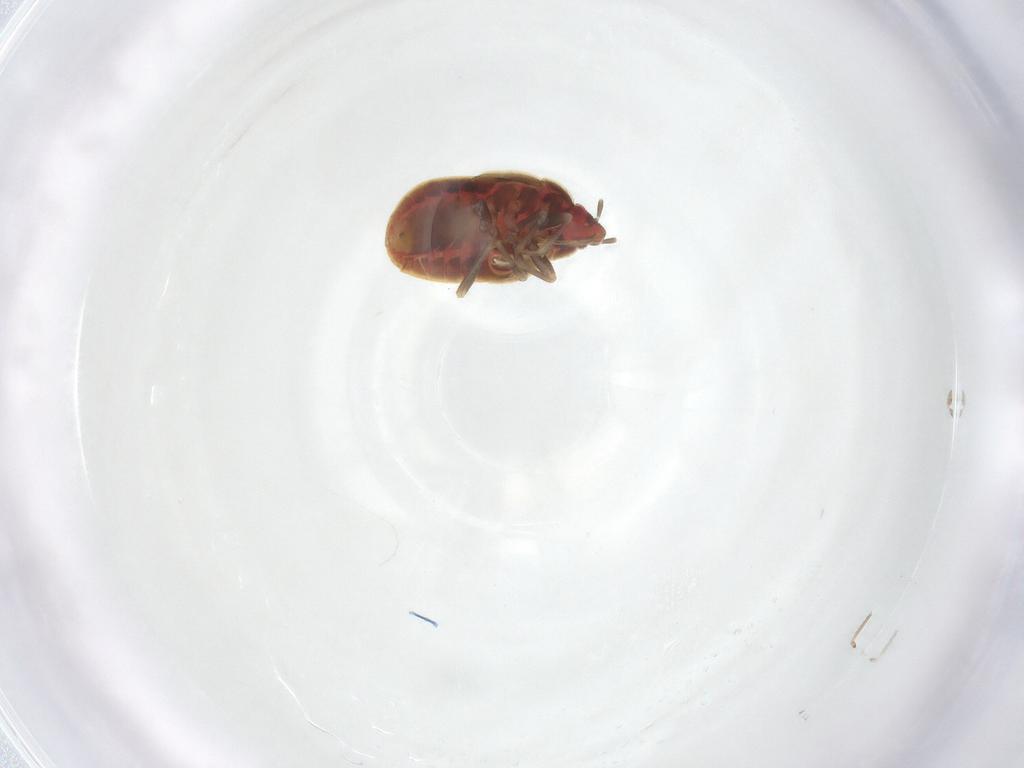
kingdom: Animalia
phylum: Arthropoda
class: Insecta
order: Hemiptera
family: Anthocoridae
